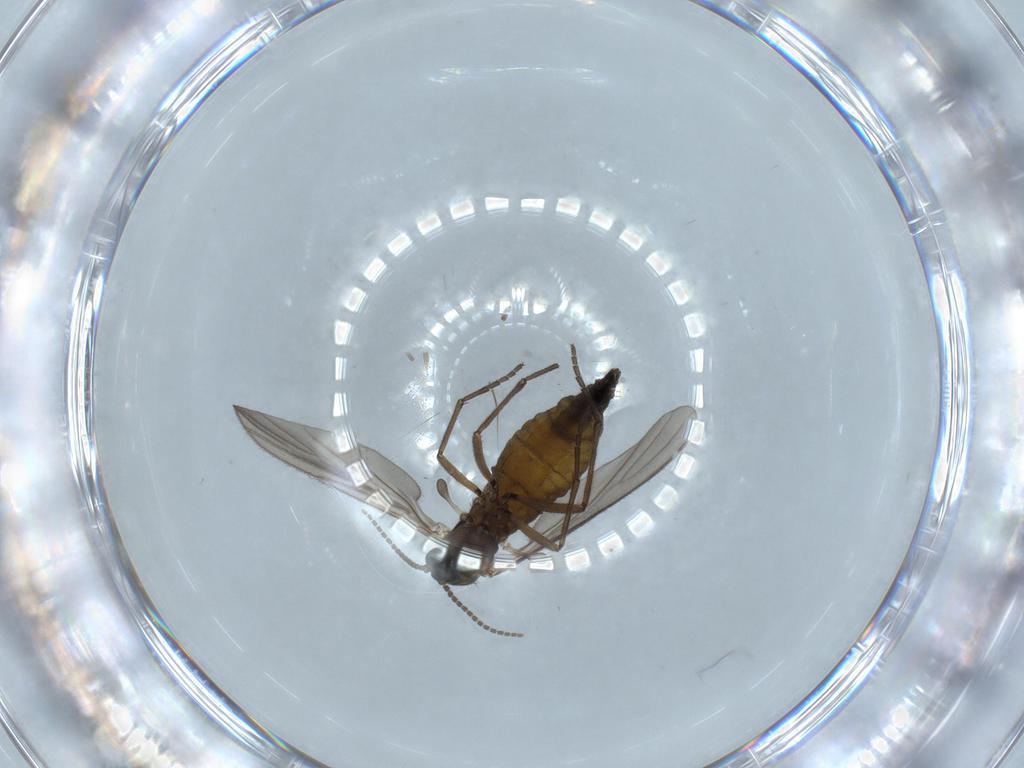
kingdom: Animalia
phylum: Arthropoda
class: Insecta
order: Diptera
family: Sciaridae
